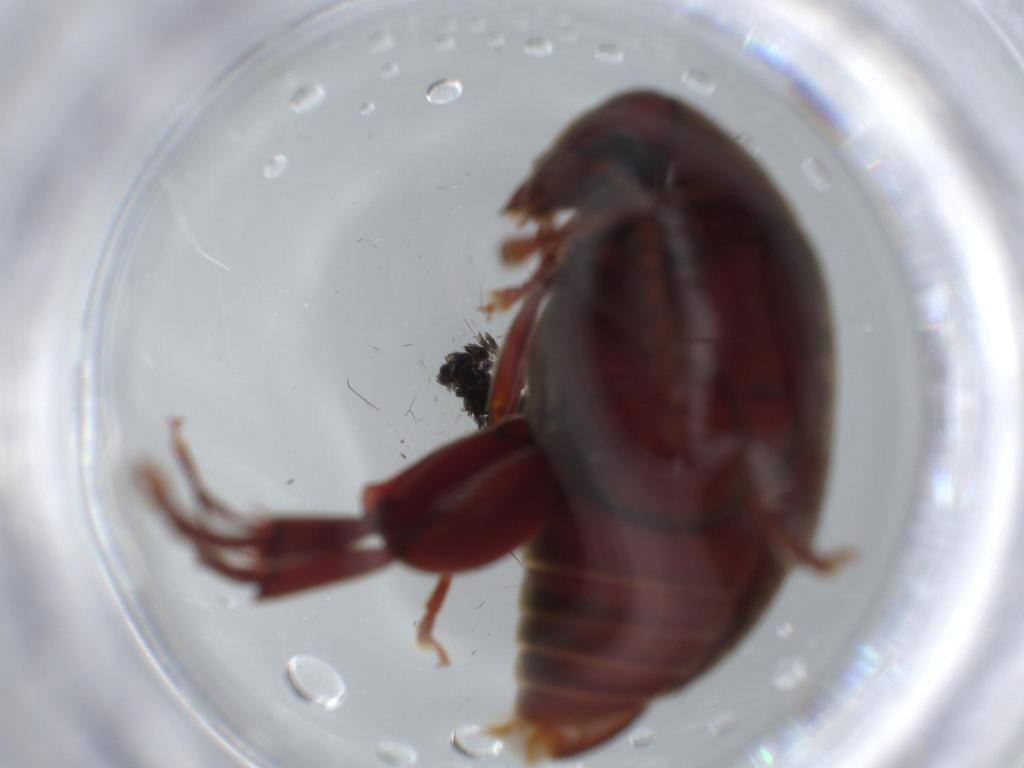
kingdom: Animalia
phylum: Arthropoda
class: Insecta
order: Coleoptera
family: Chrysomelidae
